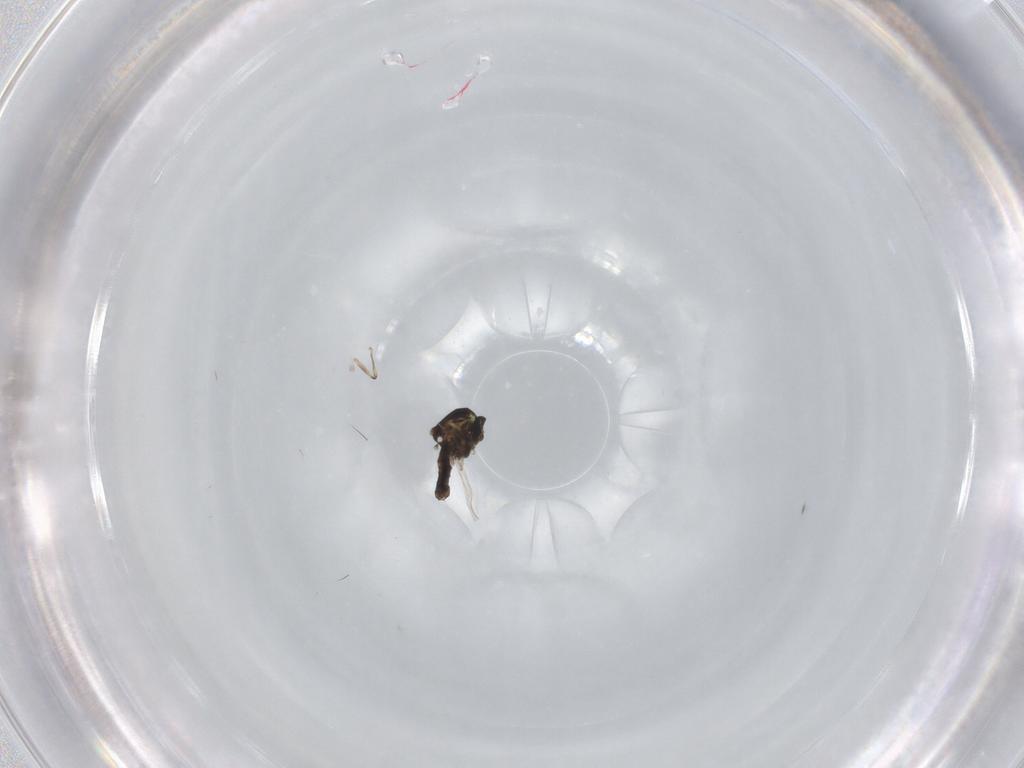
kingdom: Animalia
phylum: Arthropoda
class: Insecta
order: Diptera
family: Ceratopogonidae
